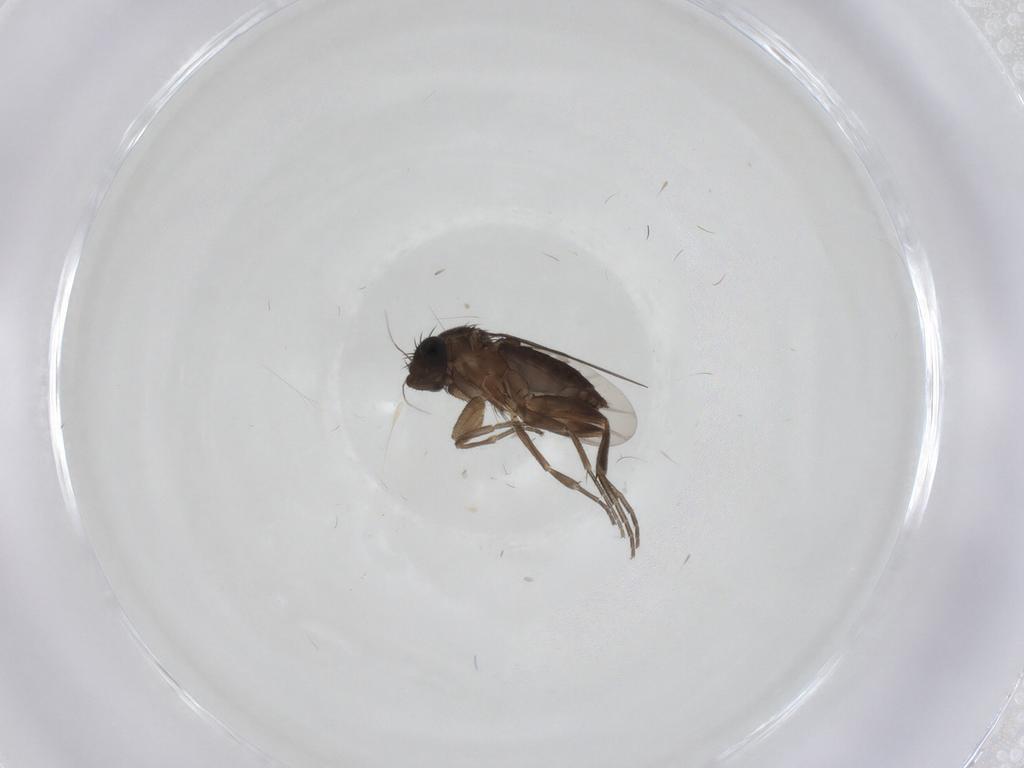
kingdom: Animalia
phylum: Arthropoda
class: Insecta
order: Diptera
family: Phoridae
